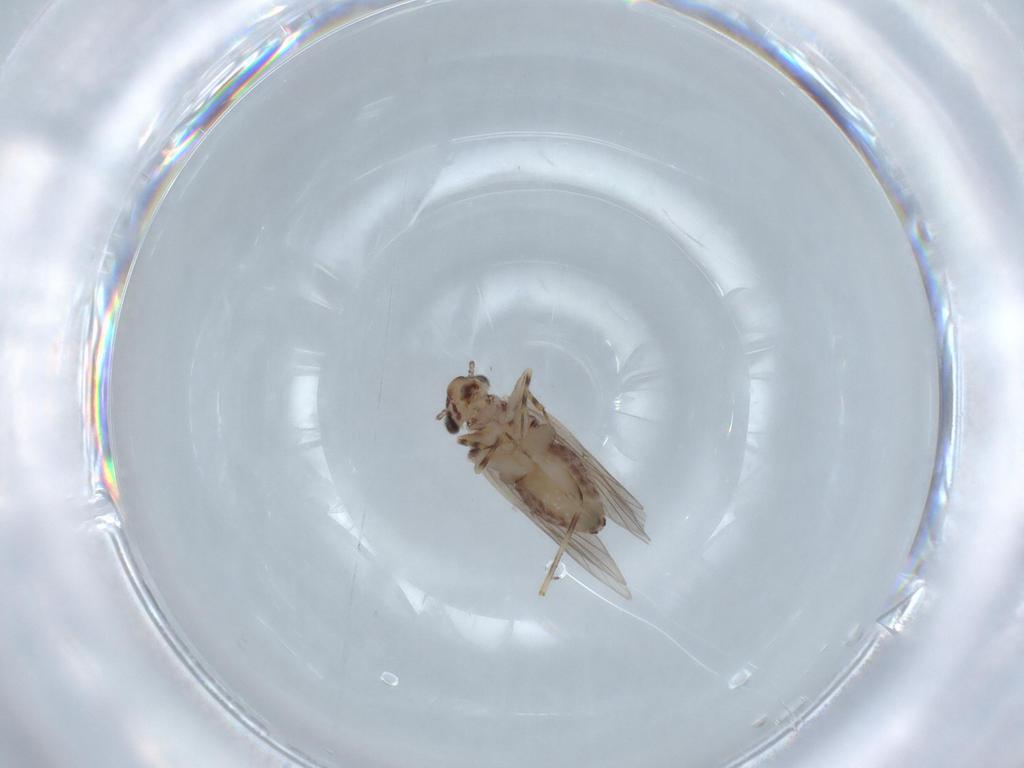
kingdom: Animalia
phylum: Arthropoda
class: Insecta
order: Psocodea
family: Lepidopsocidae
